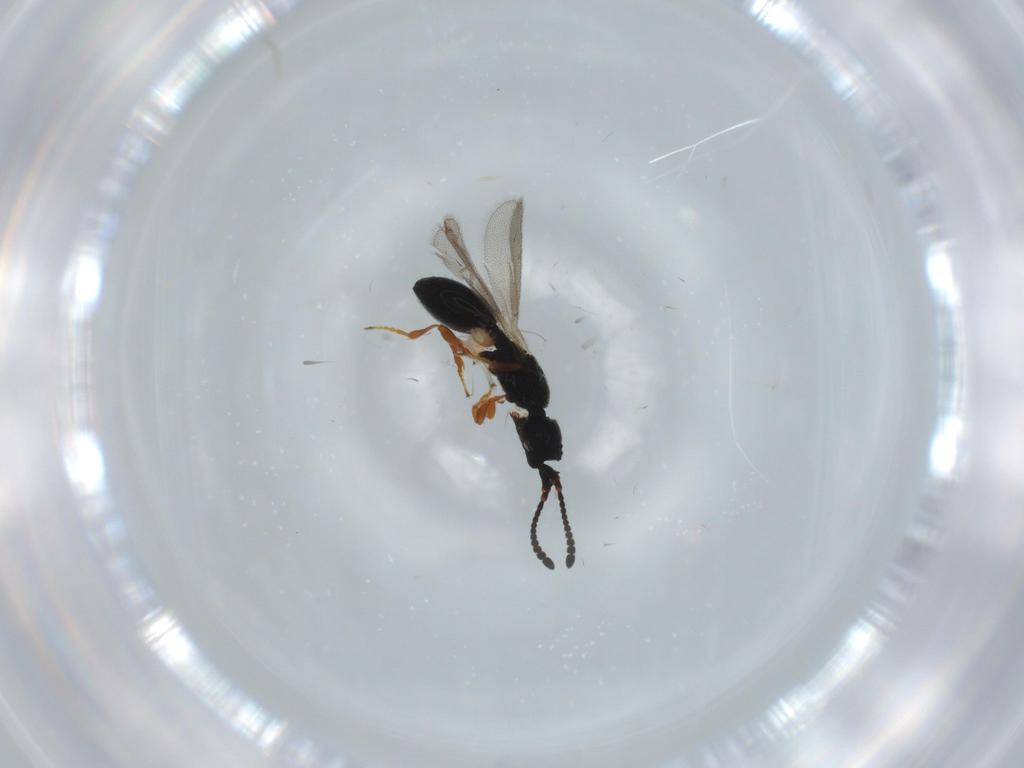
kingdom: Animalia
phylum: Arthropoda
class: Insecta
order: Hymenoptera
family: Diapriidae
